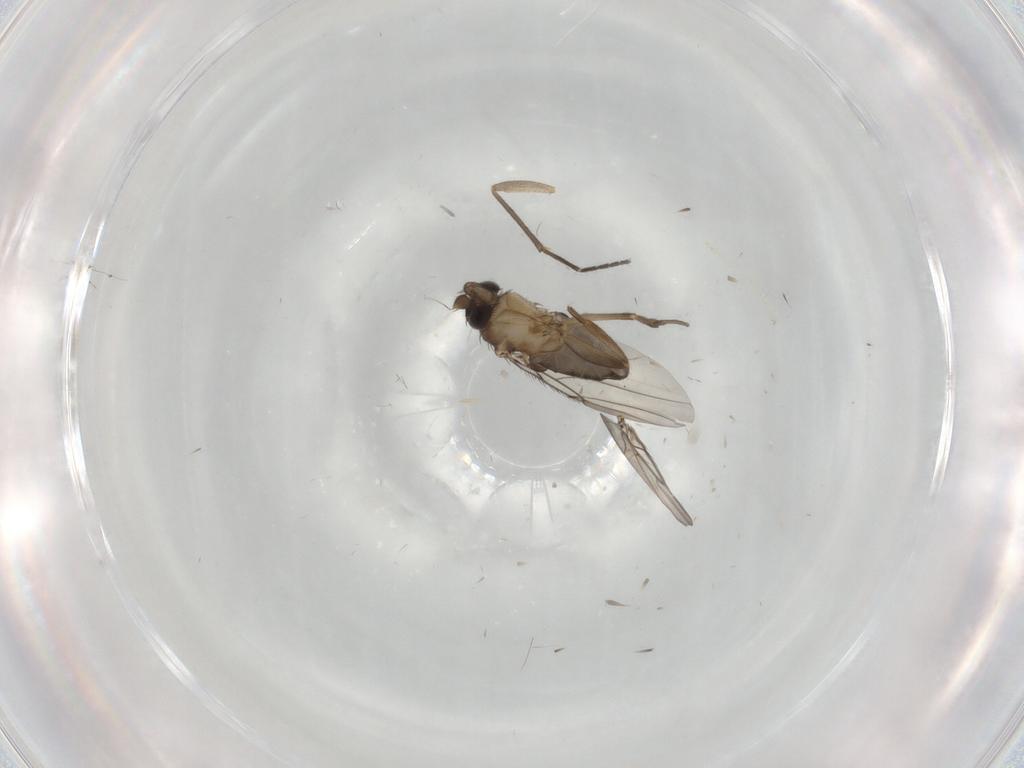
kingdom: Animalia
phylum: Arthropoda
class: Insecta
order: Diptera
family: Phoridae
